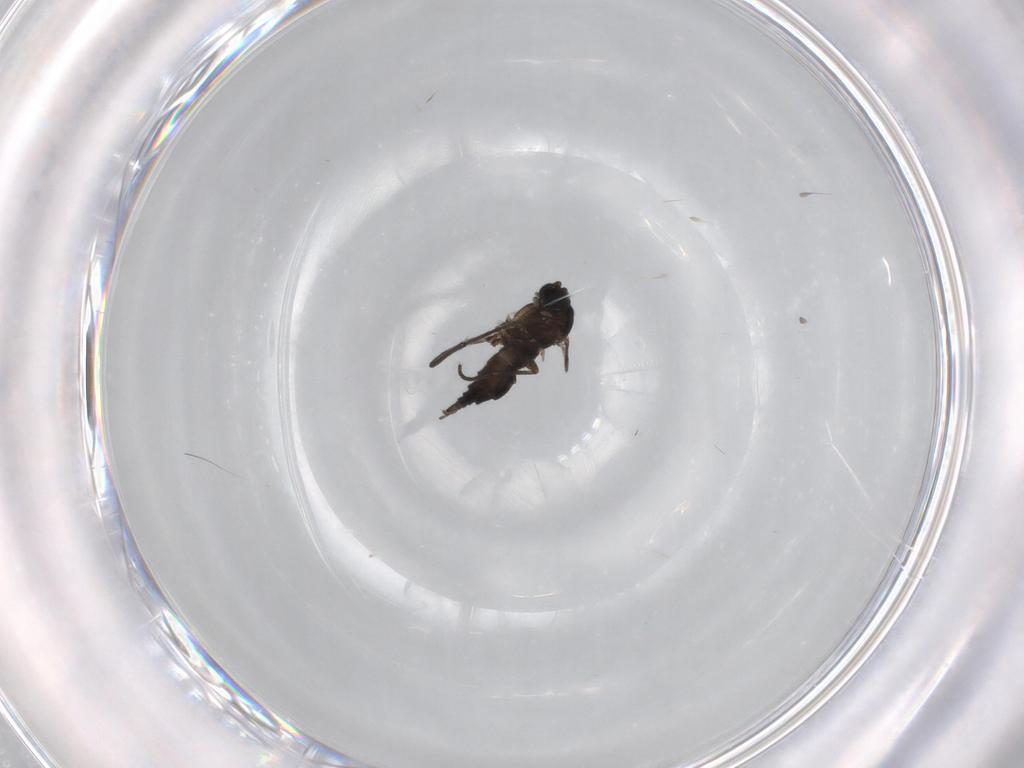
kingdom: Animalia
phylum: Arthropoda
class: Insecta
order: Diptera
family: Sciaridae
